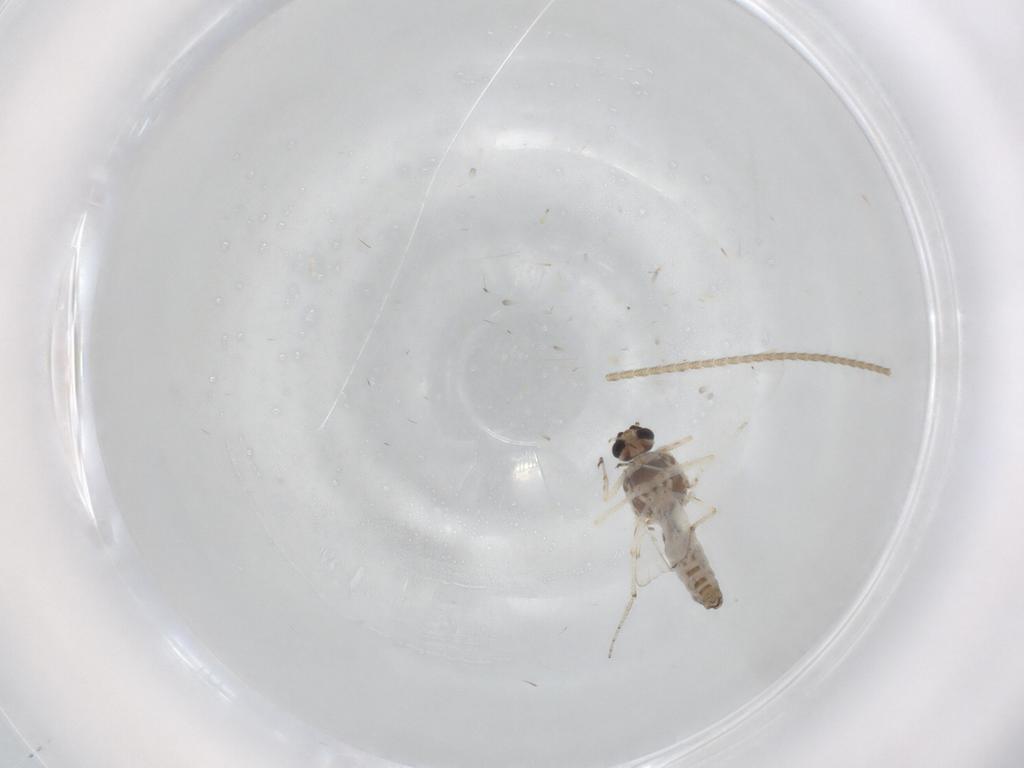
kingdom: Animalia
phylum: Arthropoda
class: Insecta
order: Diptera
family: Ceratopogonidae
